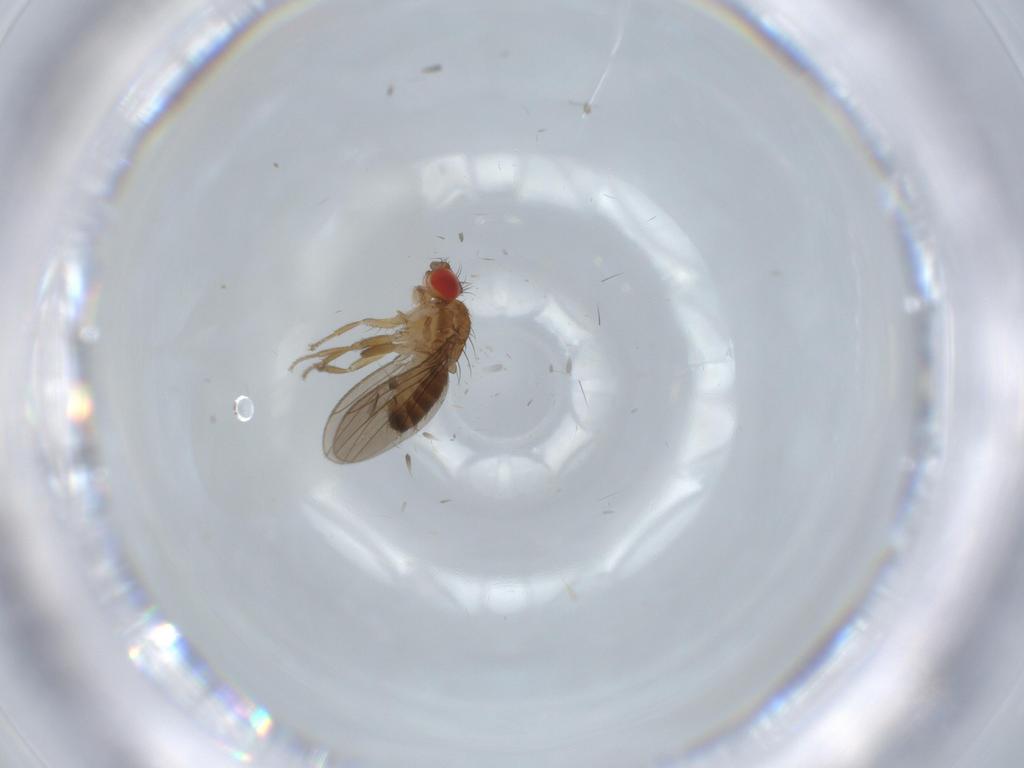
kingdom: Animalia
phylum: Arthropoda
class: Insecta
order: Diptera
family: Drosophilidae
